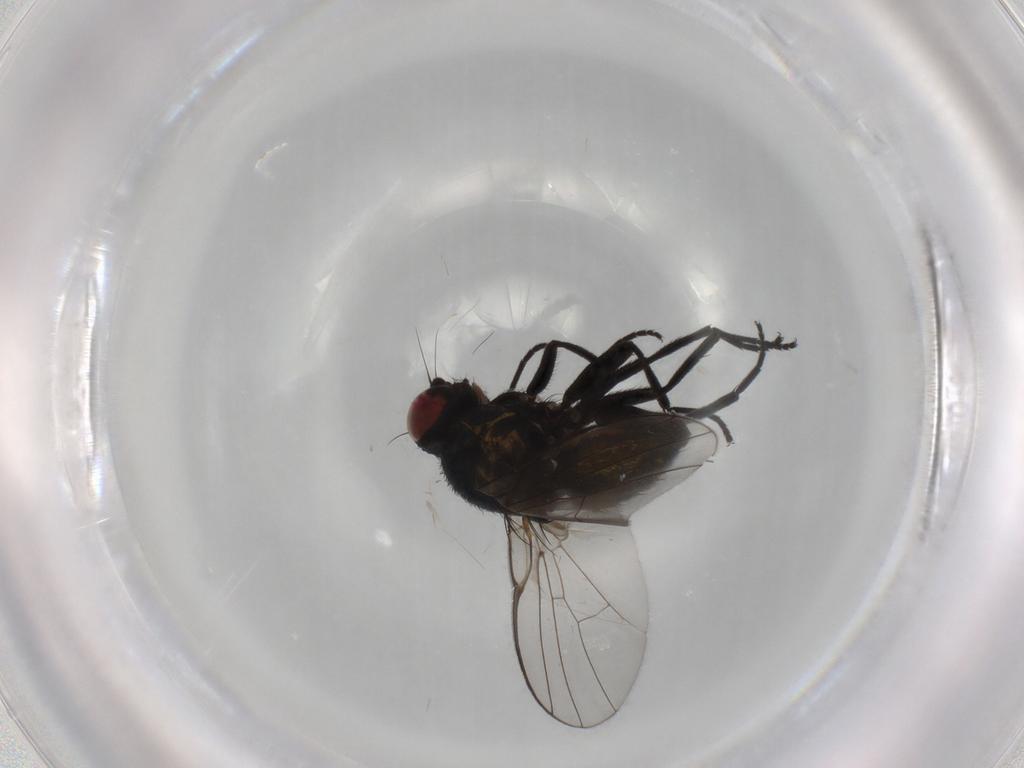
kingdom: Animalia
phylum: Arthropoda
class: Insecta
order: Diptera
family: Agromyzidae
